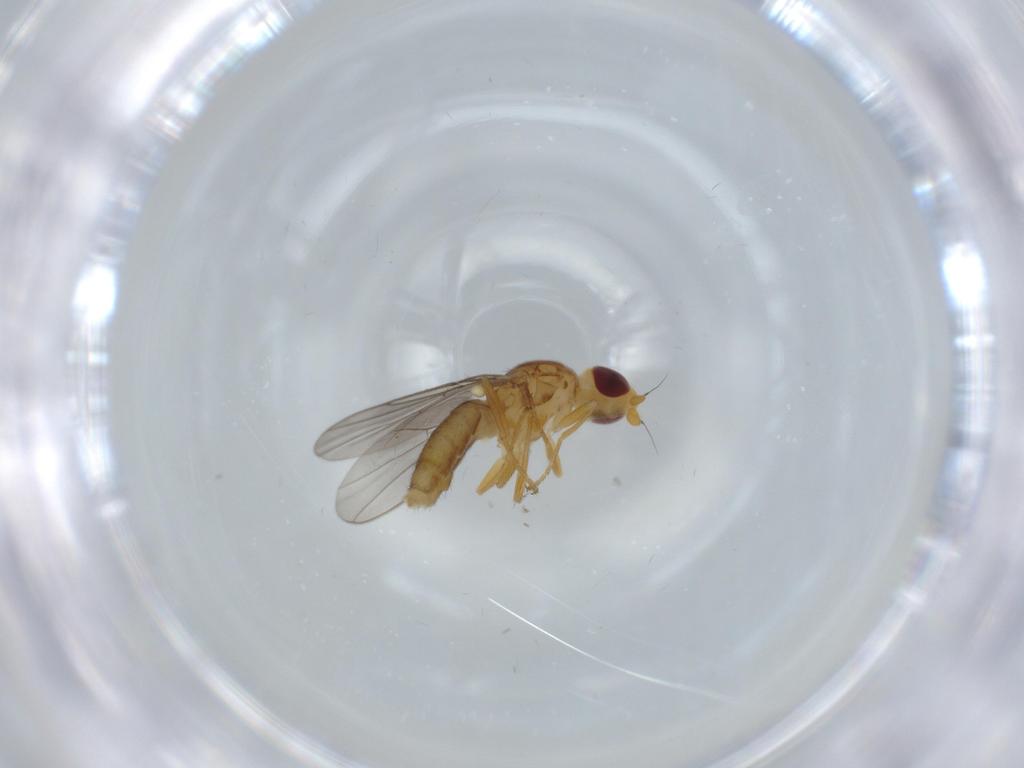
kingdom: Animalia
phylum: Arthropoda
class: Insecta
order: Diptera
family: Chloropidae
